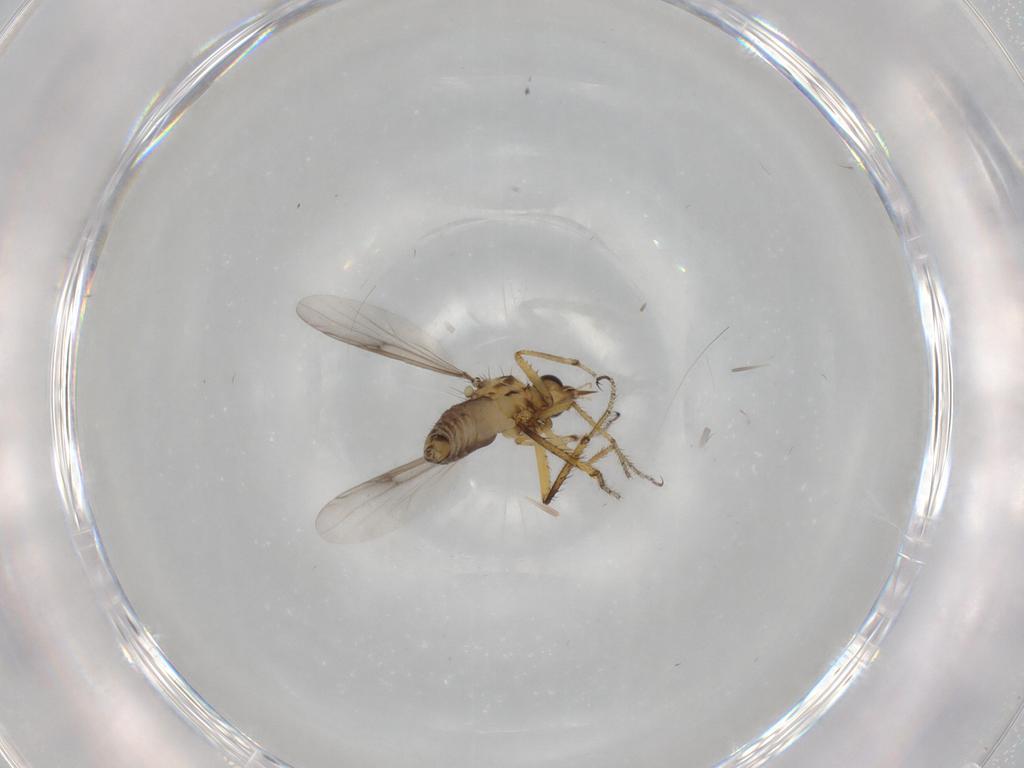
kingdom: Animalia
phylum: Arthropoda
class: Insecta
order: Diptera
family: Ceratopogonidae
